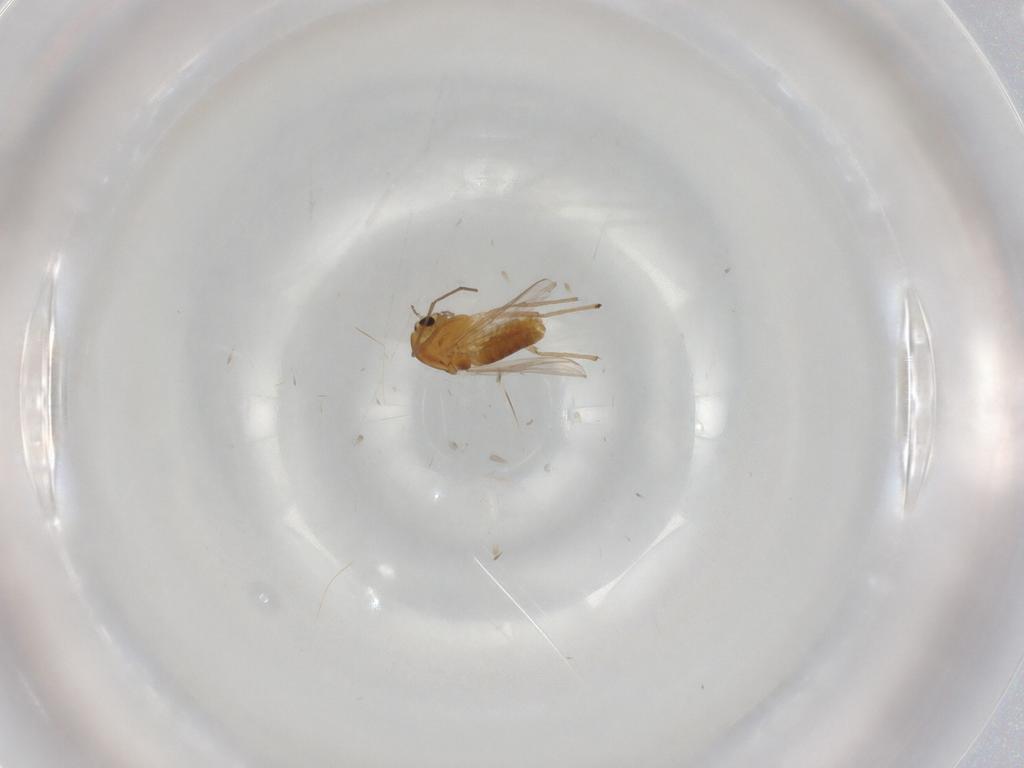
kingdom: Animalia
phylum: Arthropoda
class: Insecta
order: Diptera
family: Chironomidae
